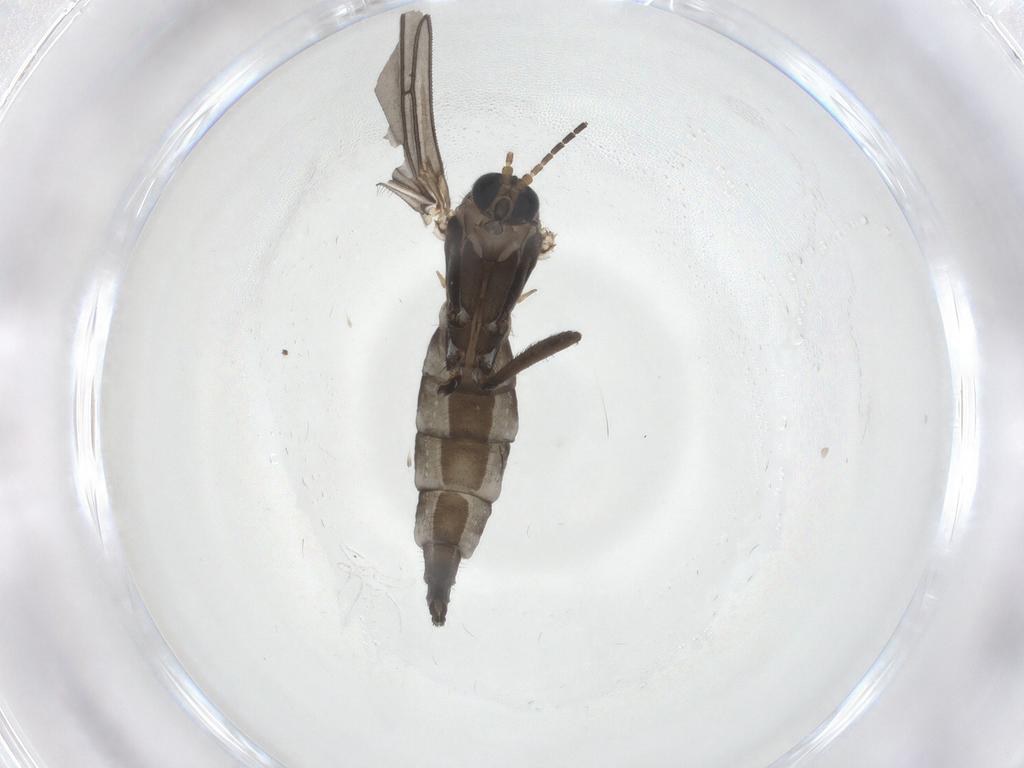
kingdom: Animalia
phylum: Arthropoda
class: Insecta
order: Diptera
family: Sciaridae
